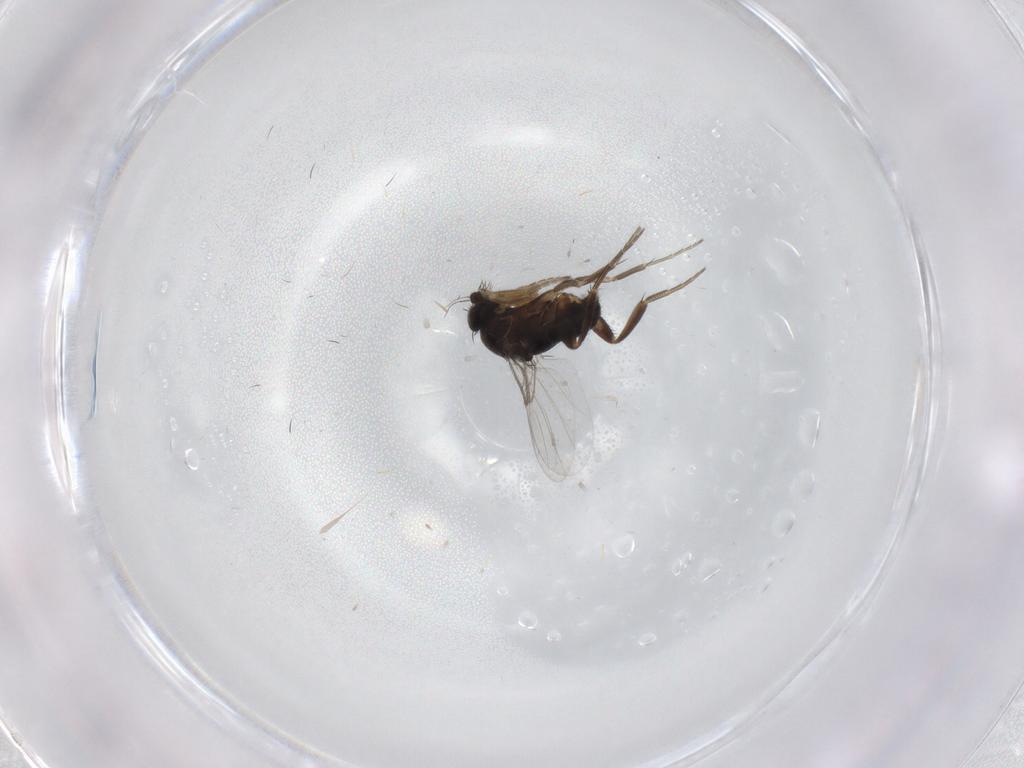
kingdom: Animalia
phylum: Arthropoda
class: Insecta
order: Diptera
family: Phoridae
